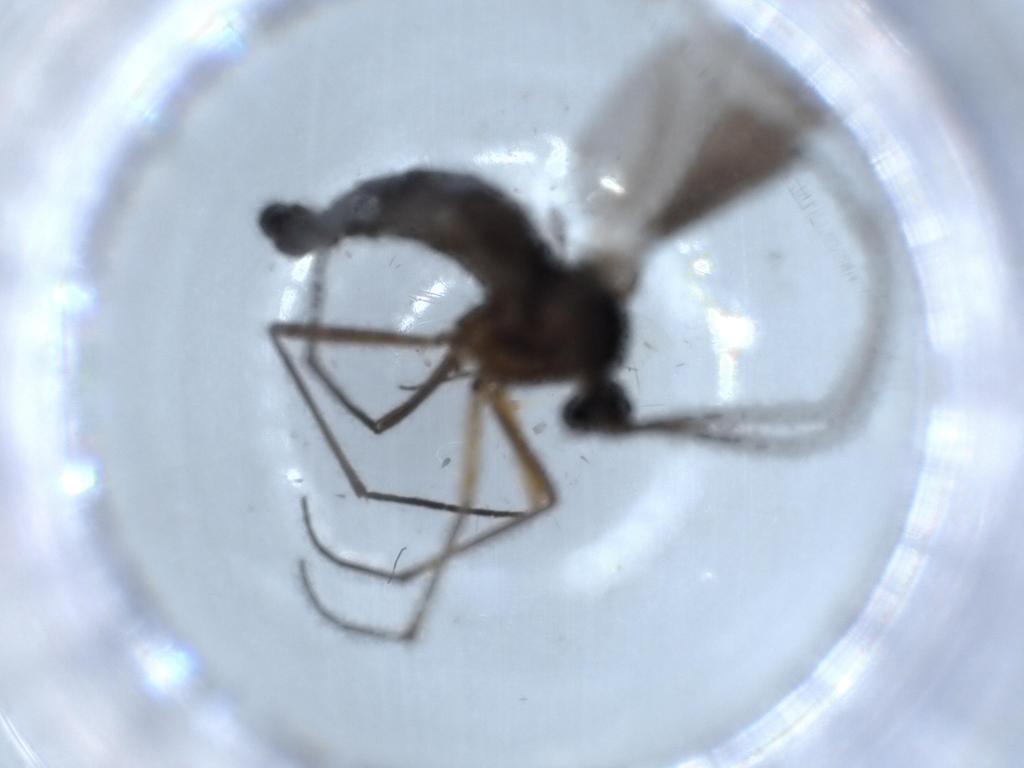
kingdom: Animalia
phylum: Arthropoda
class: Insecta
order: Diptera
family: Sciaridae
